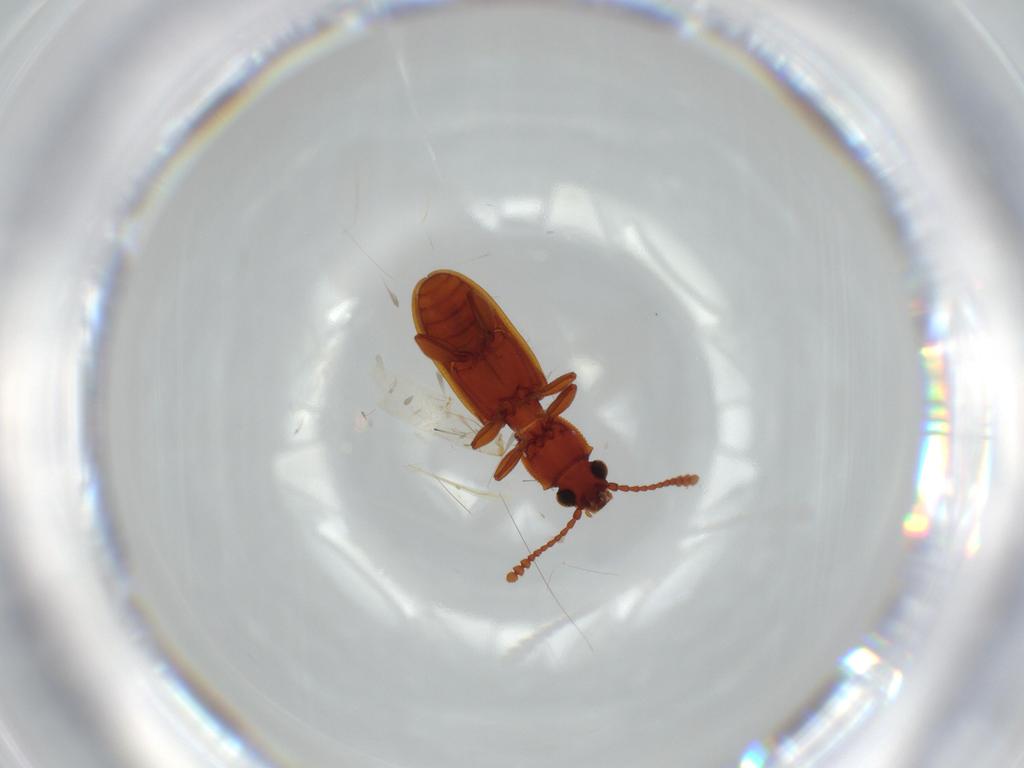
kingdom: Animalia
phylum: Arthropoda
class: Insecta
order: Coleoptera
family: Silvanidae
